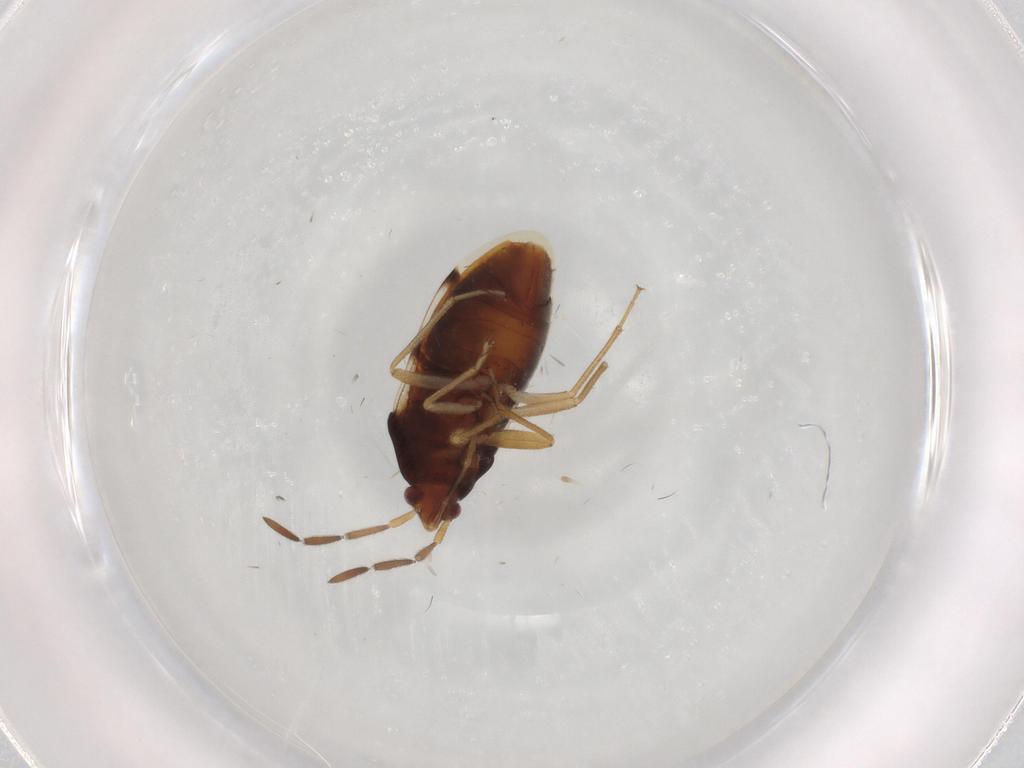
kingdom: Animalia
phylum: Arthropoda
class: Insecta
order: Hemiptera
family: Rhyparochromidae
